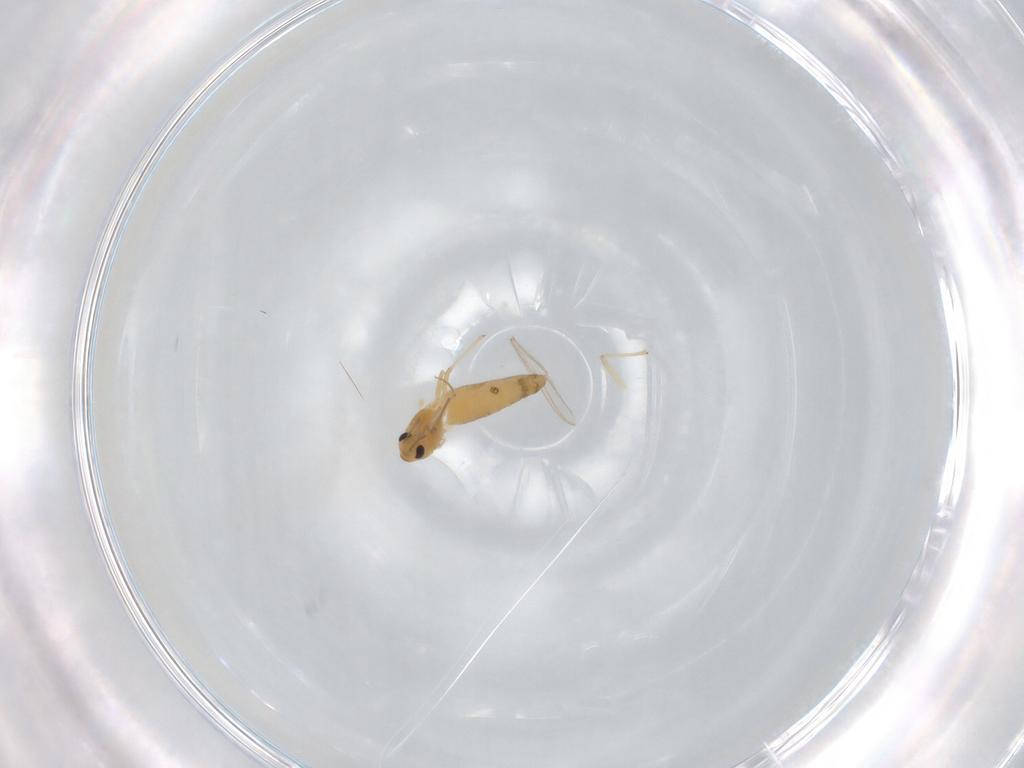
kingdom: Animalia
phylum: Arthropoda
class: Insecta
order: Diptera
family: Chironomidae
